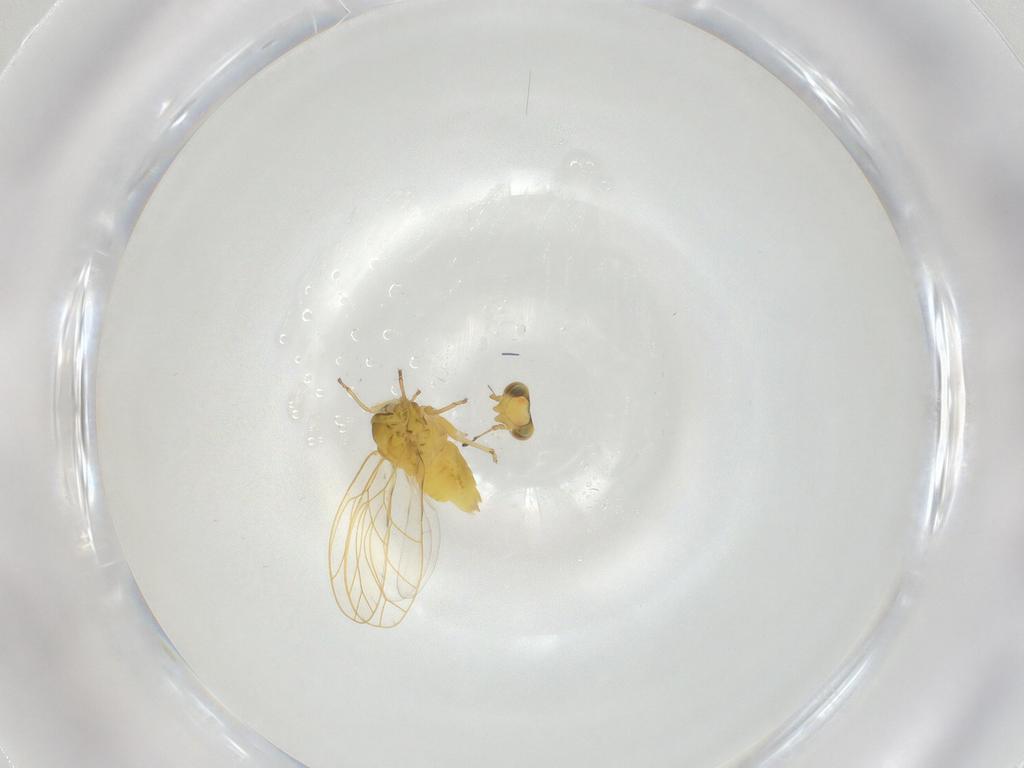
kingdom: Animalia
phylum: Arthropoda
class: Insecta
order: Hemiptera
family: Psylloidea_incertae_sedis
